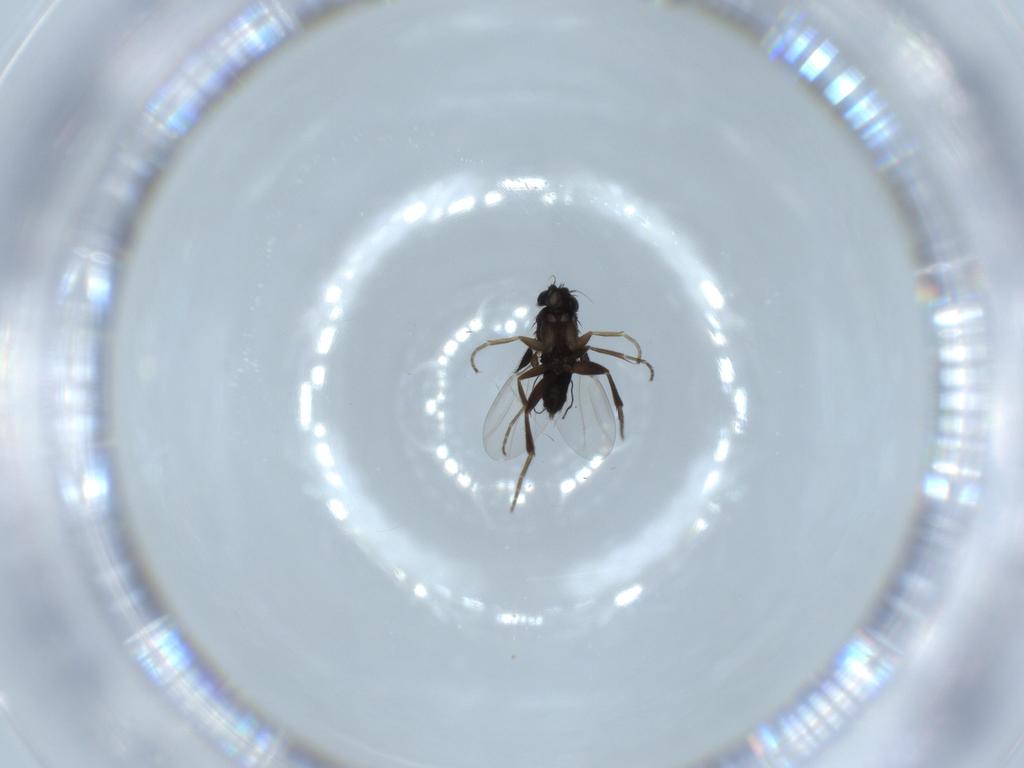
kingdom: Animalia
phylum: Arthropoda
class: Insecta
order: Diptera
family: Phoridae
